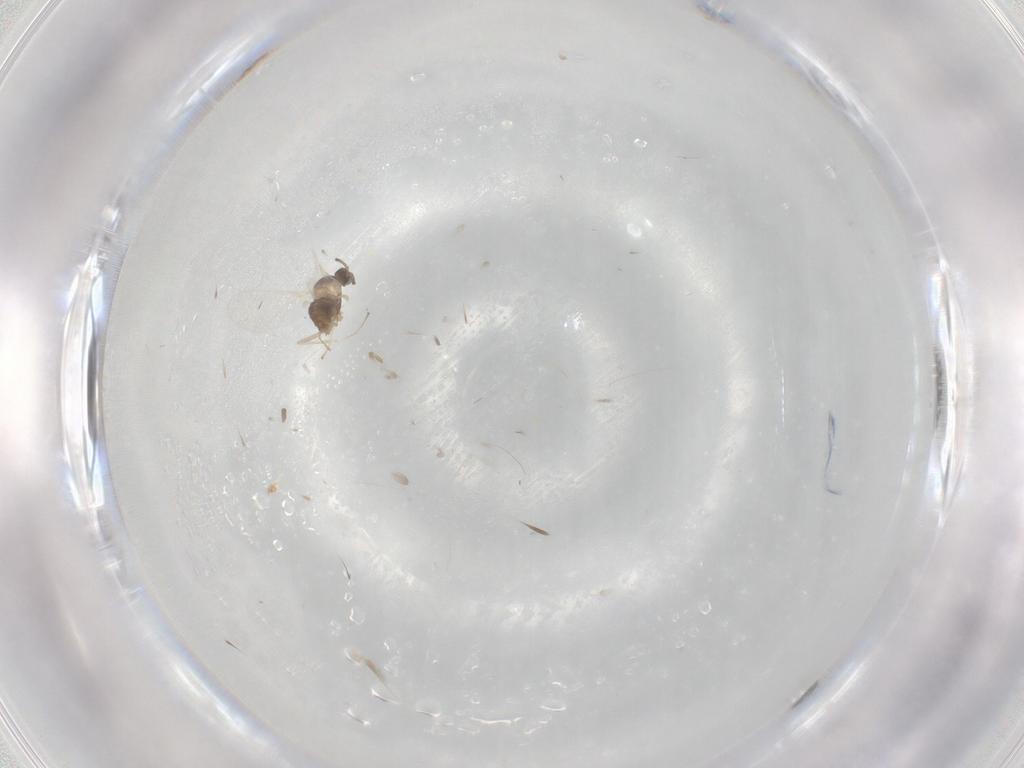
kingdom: Animalia
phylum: Arthropoda
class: Insecta
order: Diptera
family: Cecidomyiidae
